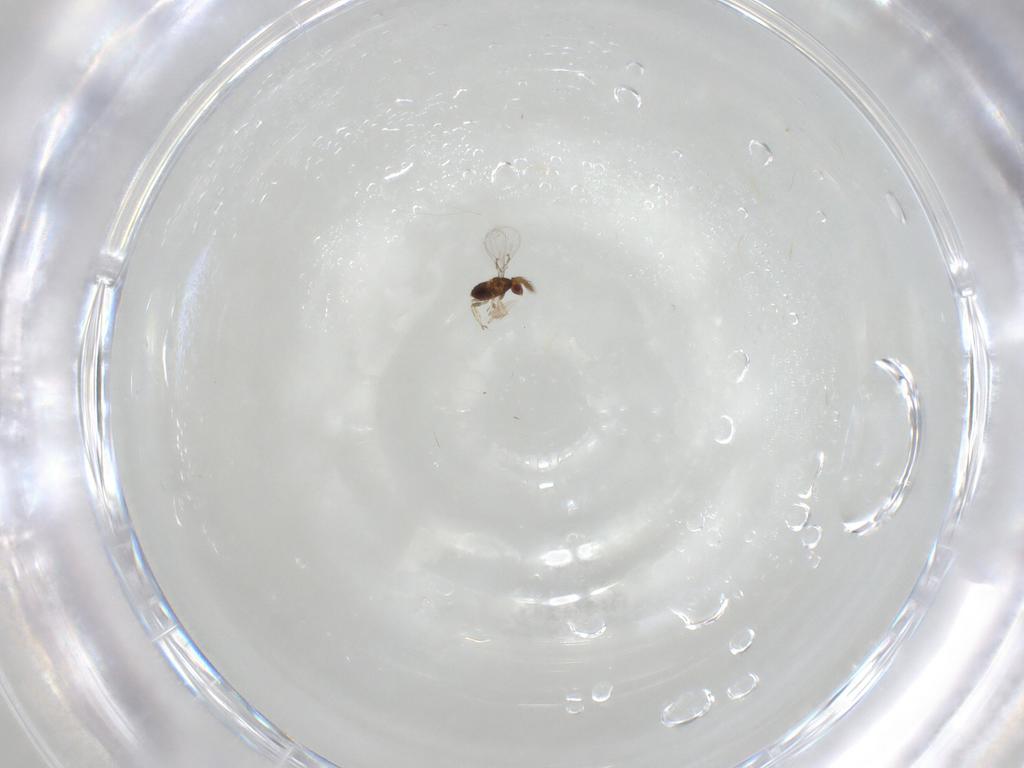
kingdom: Animalia
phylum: Arthropoda
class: Insecta
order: Hymenoptera
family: Trichogrammatidae
